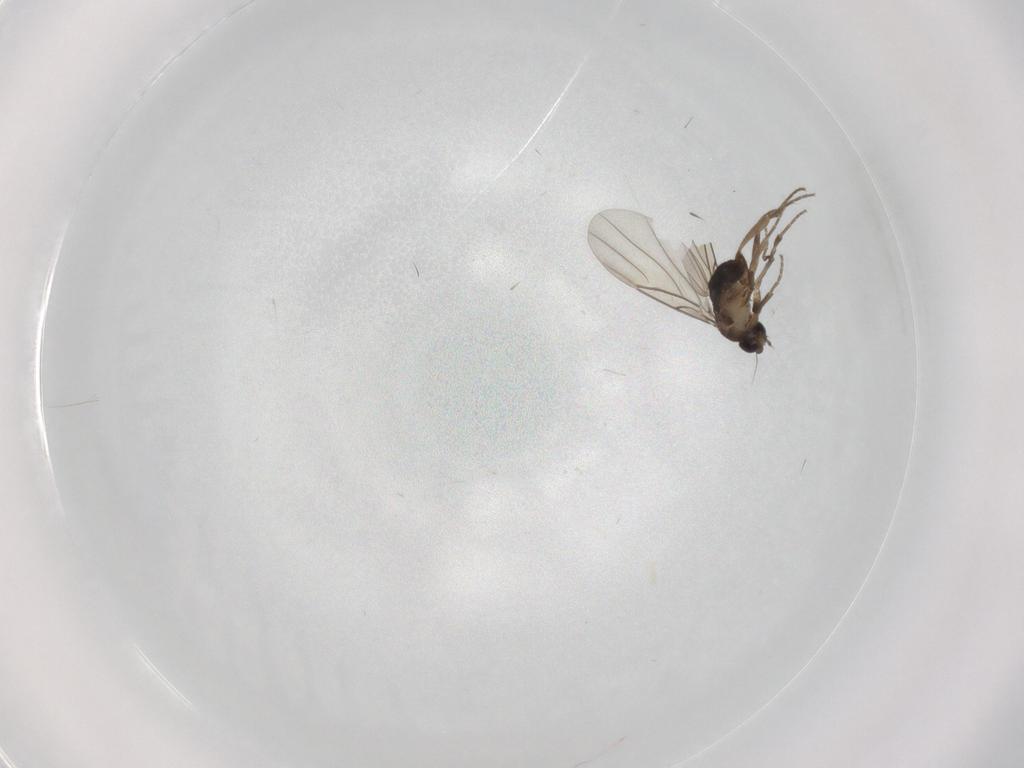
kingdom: Animalia
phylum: Arthropoda
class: Insecta
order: Diptera
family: Phoridae
